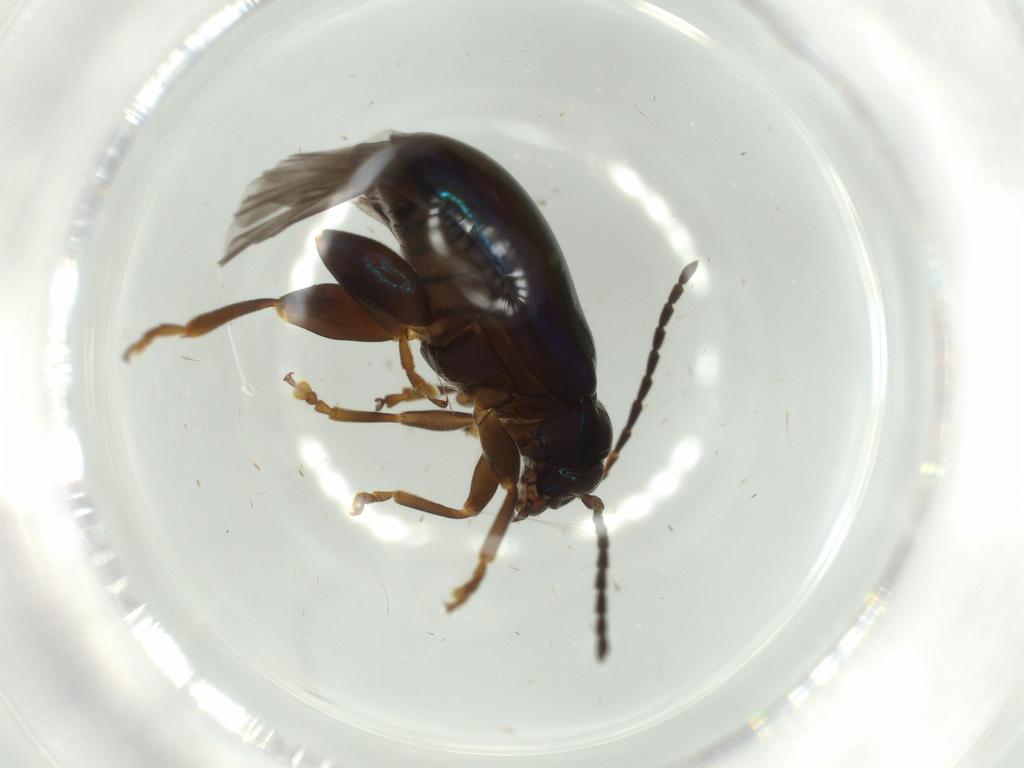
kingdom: Animalia
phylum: Arthropoda
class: Insecta
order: Coleoptera
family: Chrysomelidae
